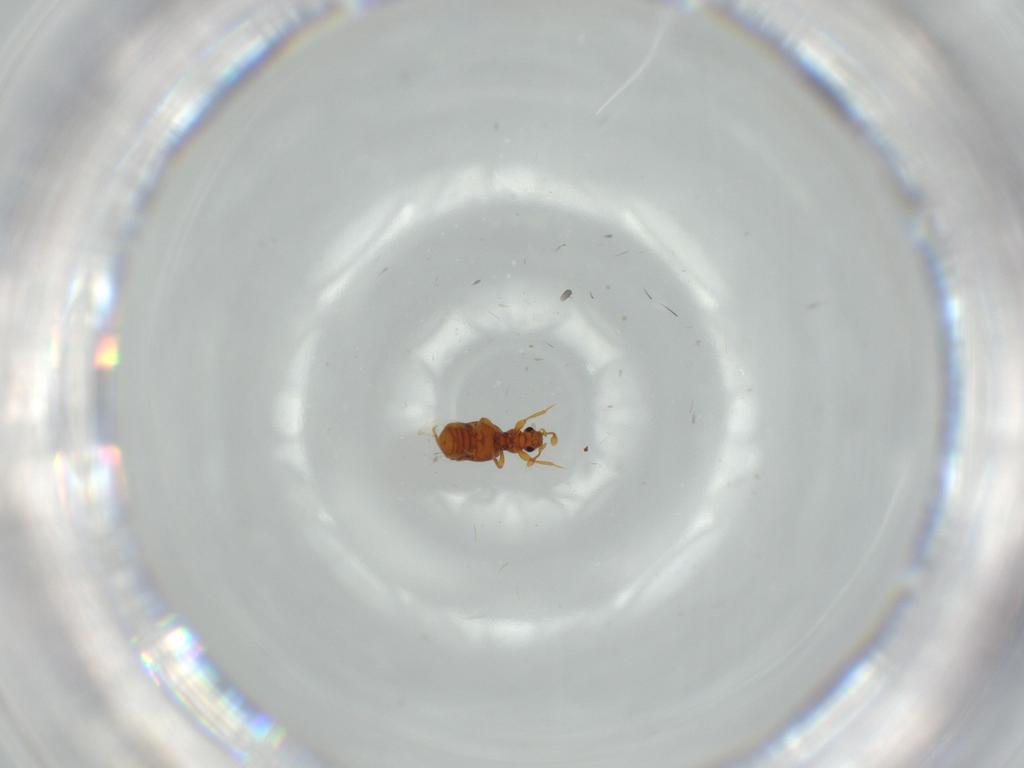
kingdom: Animalia
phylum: Arthropoda
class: Insecta
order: Coleoptera
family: Staphylinidae
